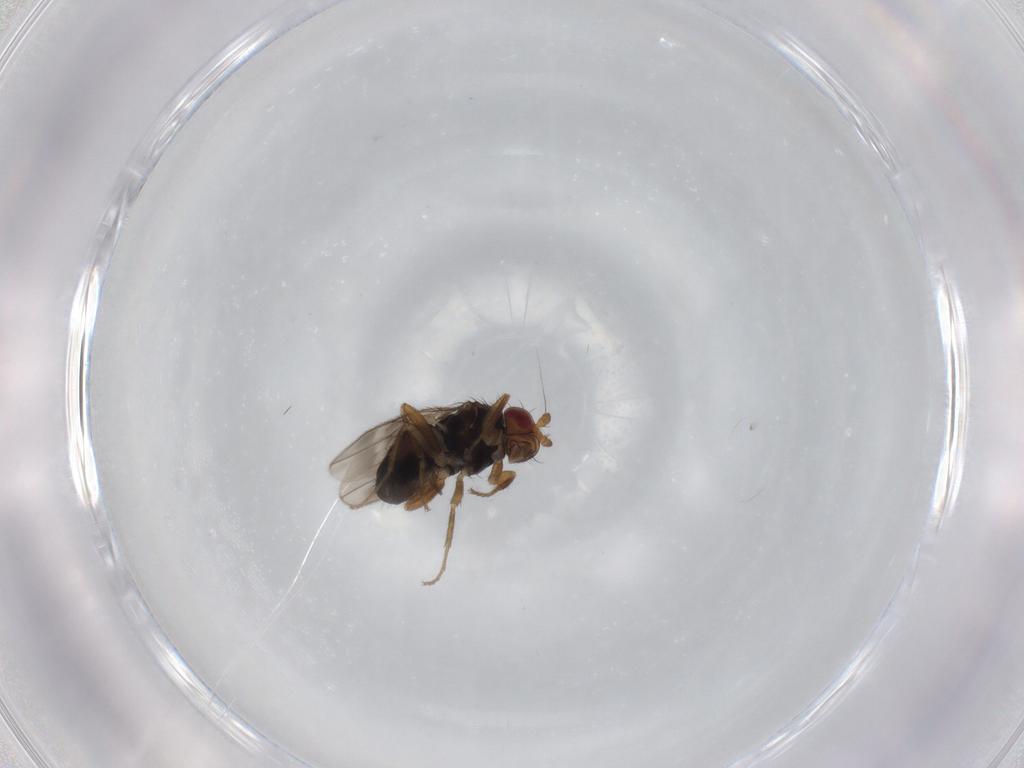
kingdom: Animalia
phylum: Arthropoda
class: Insecta
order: Diptera
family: Sphaeroceridae
